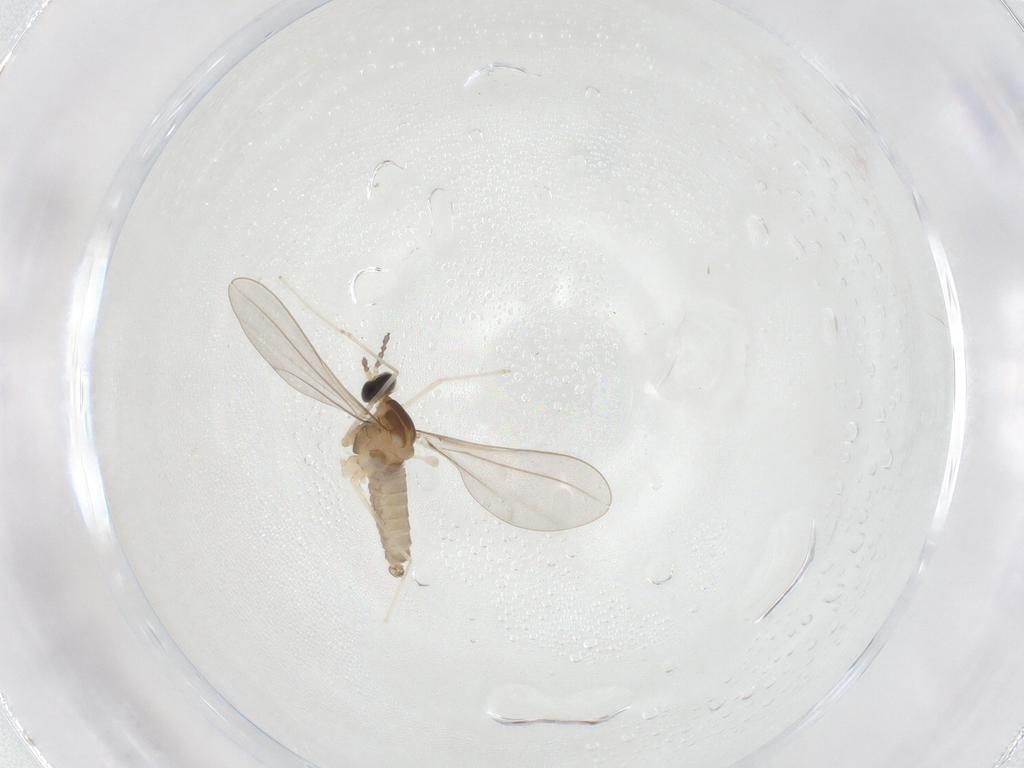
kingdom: Animalia
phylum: Arthropoda
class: Insecta
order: Diptera
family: Cecidomyiidae
